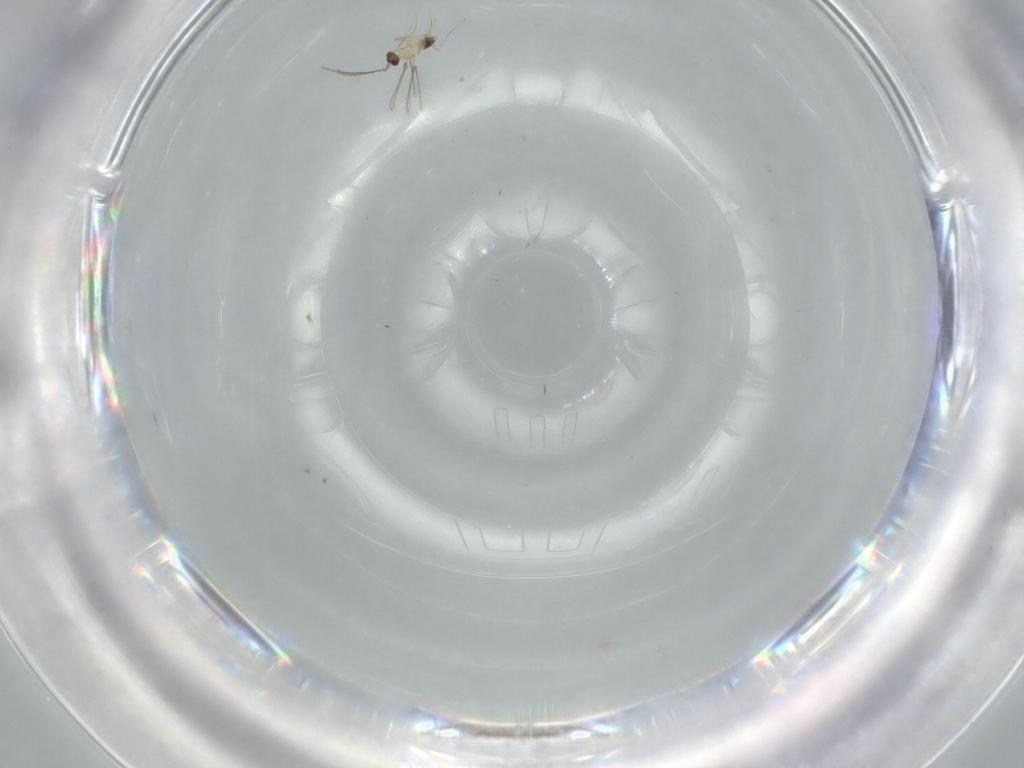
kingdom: Animalia
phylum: Arthropoda
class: Insecta
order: Hymenoptera
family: Mymaridae
